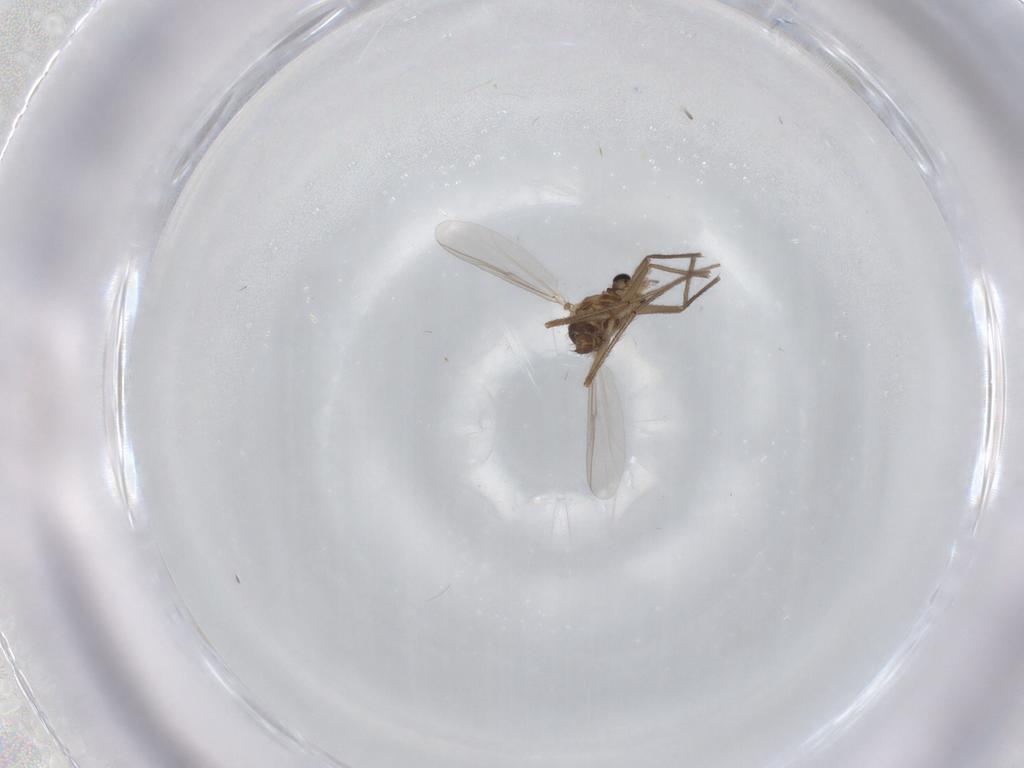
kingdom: Animalia
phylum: Arthropoda
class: Insecta
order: Diptera
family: Chironomidae
